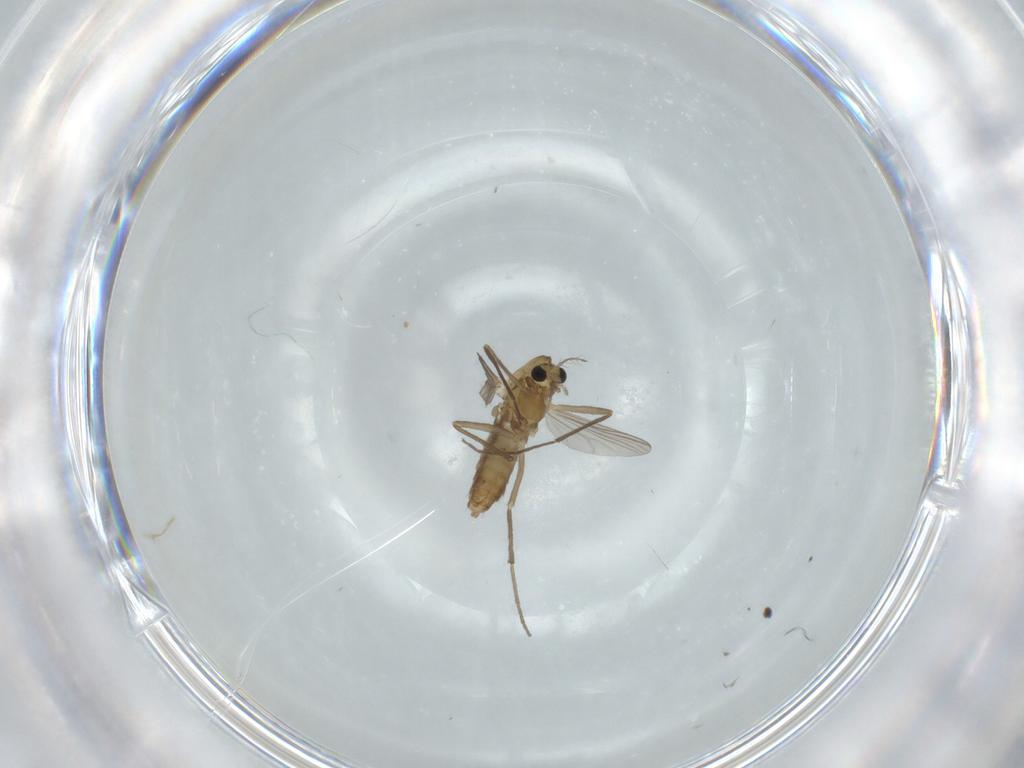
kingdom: Animalia
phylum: Arthropoda
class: Insecta
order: Diptera
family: Chironomidae
